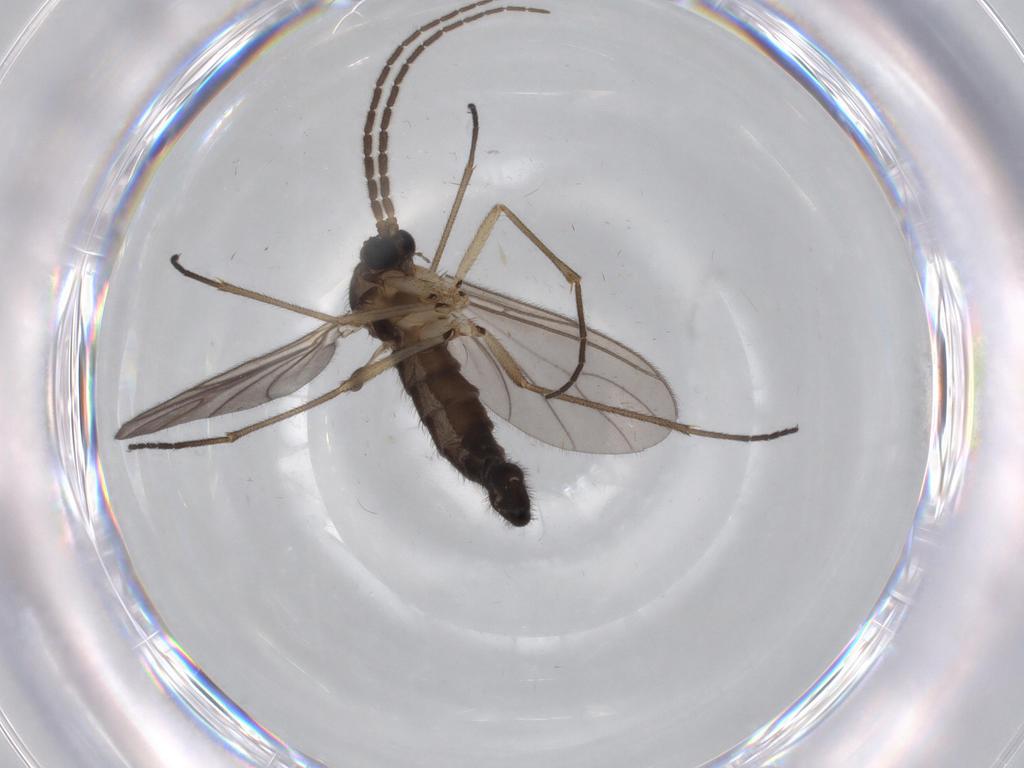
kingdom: Animalia
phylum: Arthropoda
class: Insecta
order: Diptera
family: Sciaridae
